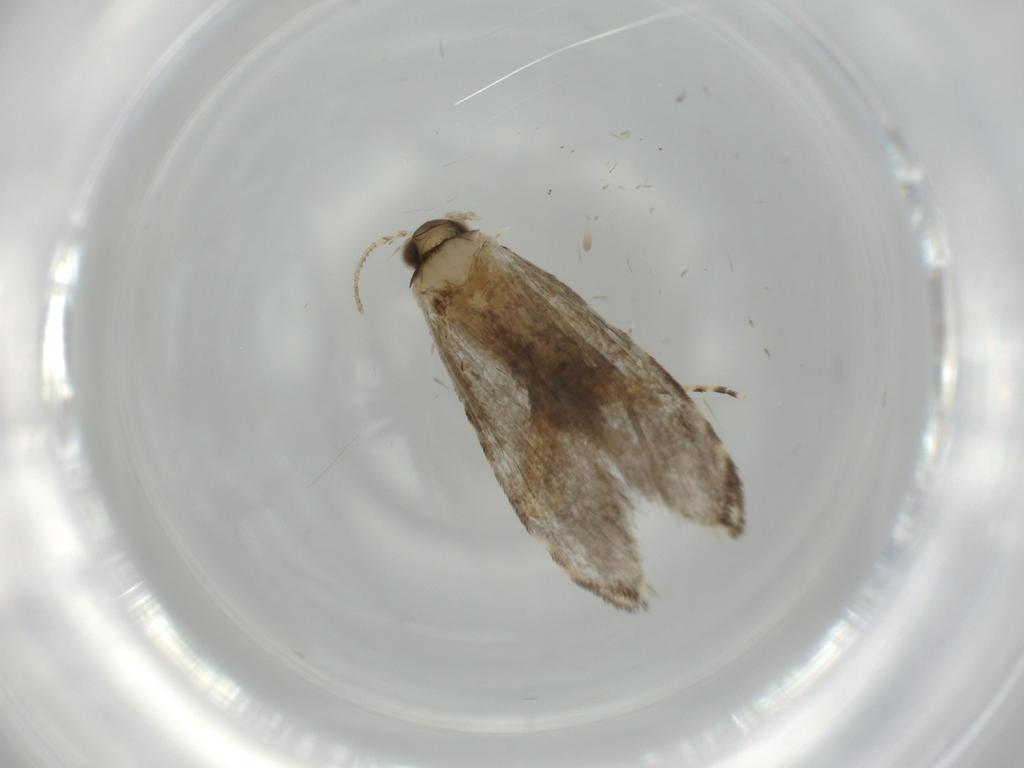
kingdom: Animalia
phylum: Arthropoda
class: Insecta
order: Lepidoptera
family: Tineidae
